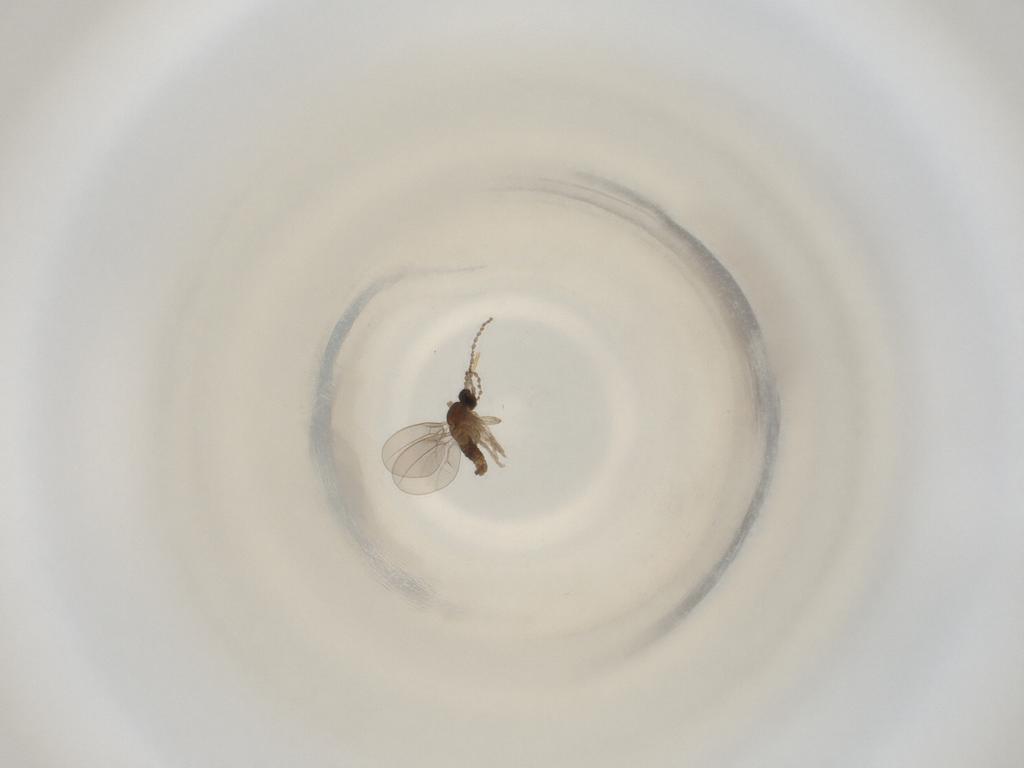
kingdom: Animalia
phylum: Arthropoda
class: Insecta
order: Diptera
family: Cecidomyiidae
